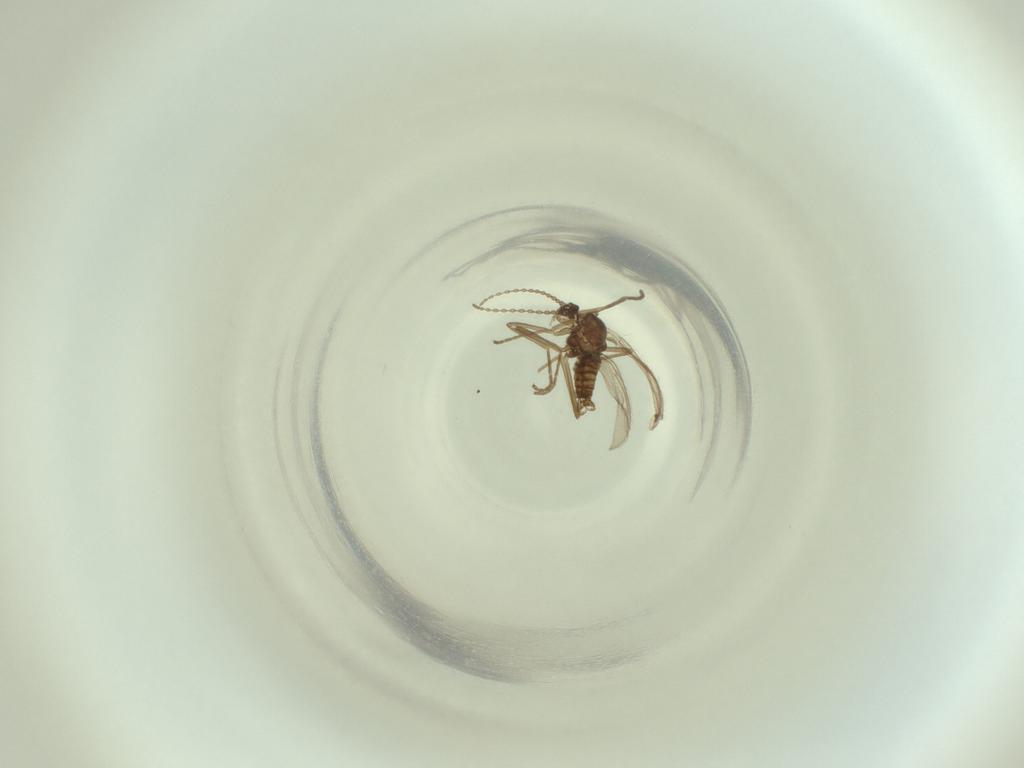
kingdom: Animalia
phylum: Arthropoda
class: Insecta
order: Diptera
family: Cecidomyiidae
